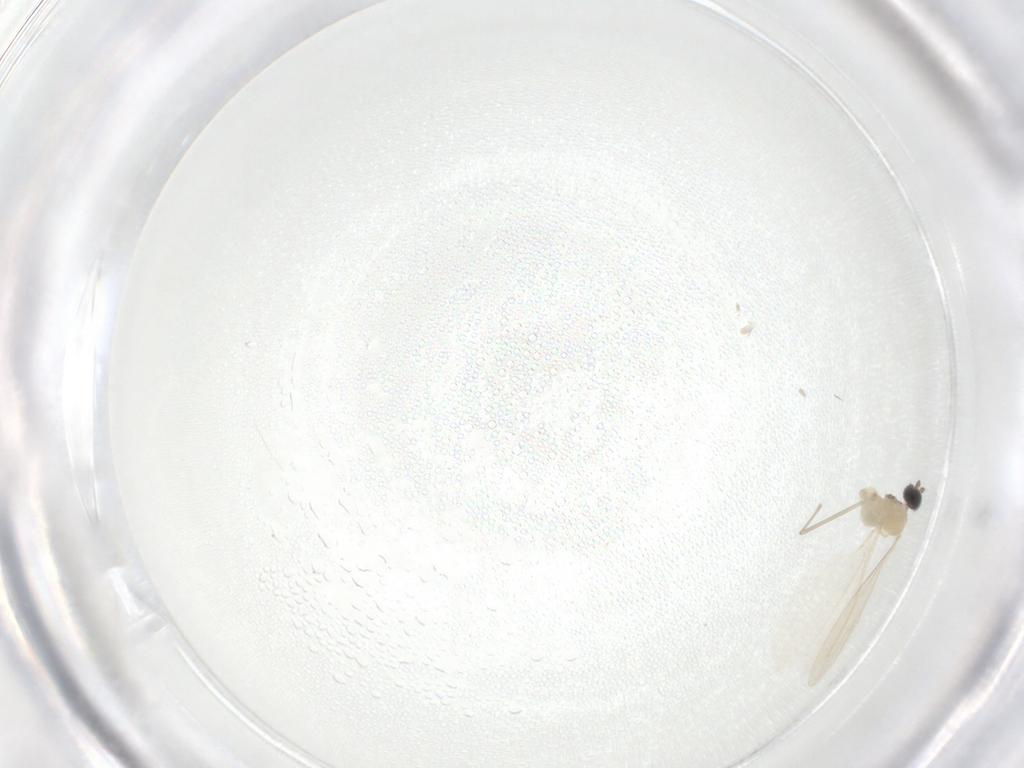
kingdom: Animalia
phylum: Arthropoda
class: Insecta
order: Diptera
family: Cecidomyiidae
